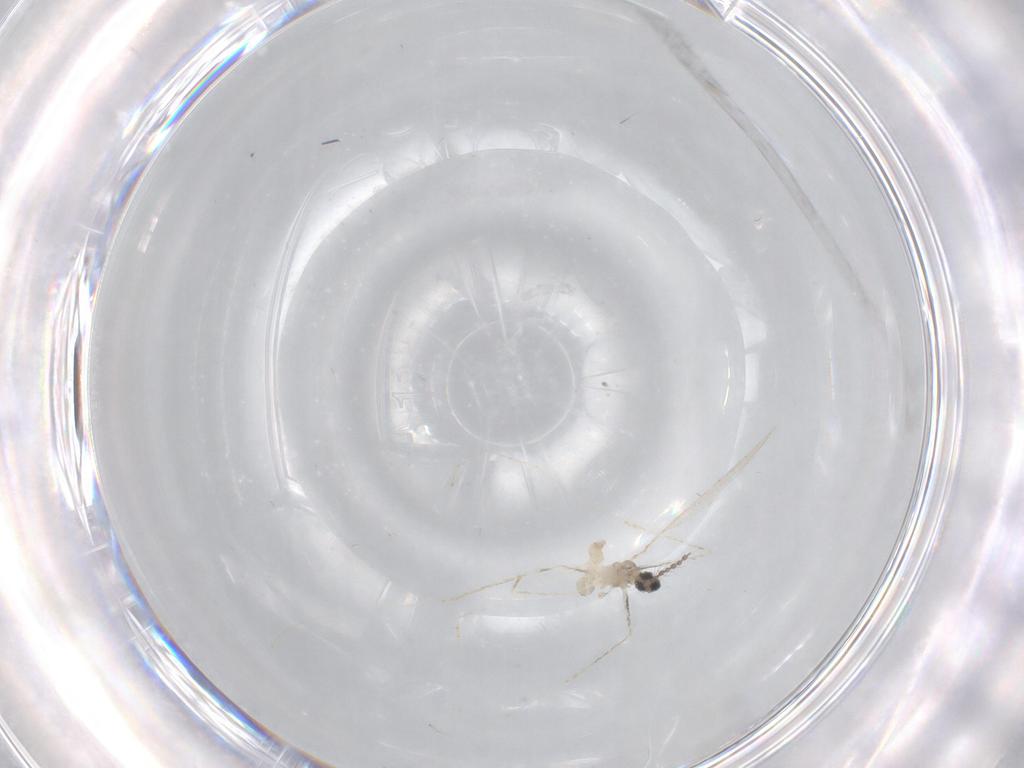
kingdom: Animalia
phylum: Arthropoda
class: Insecta
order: Diptera
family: Cecidomyiidae
